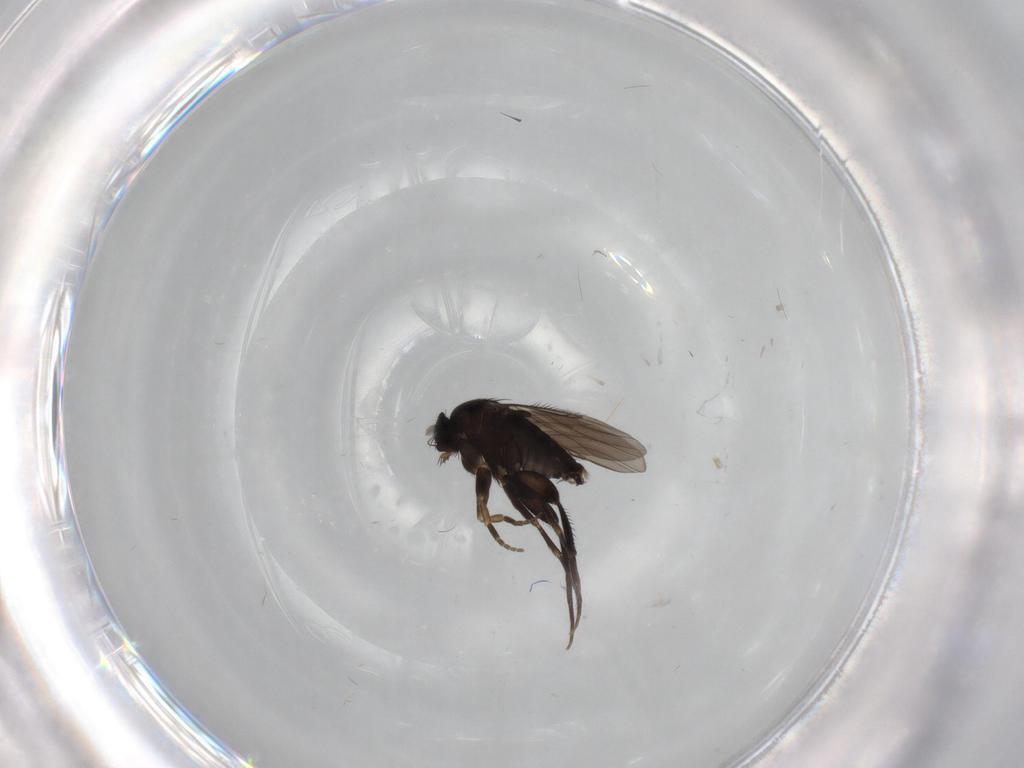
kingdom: Animalia
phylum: Arthropoda
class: Insecta
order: Diptera
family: Phoridae
